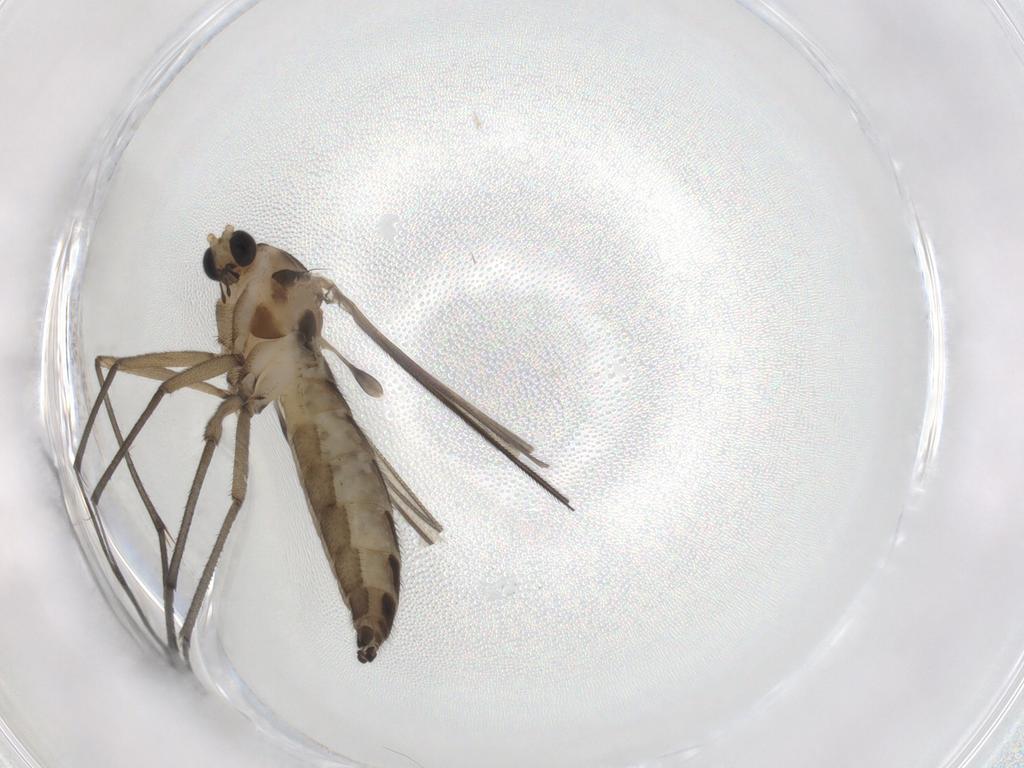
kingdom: Animalia
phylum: Arthropoda
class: Insecta
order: Diptera
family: Sciaridae
